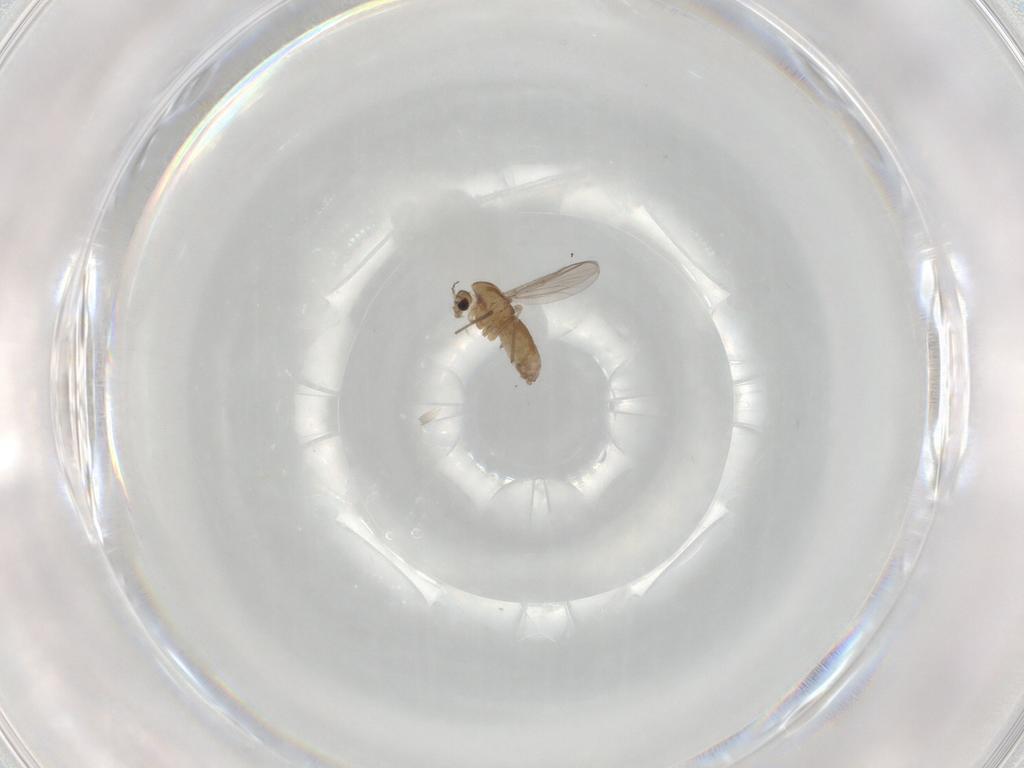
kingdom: Animalia
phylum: Arthropoda
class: Insecta
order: Diptera
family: Chironomidae
